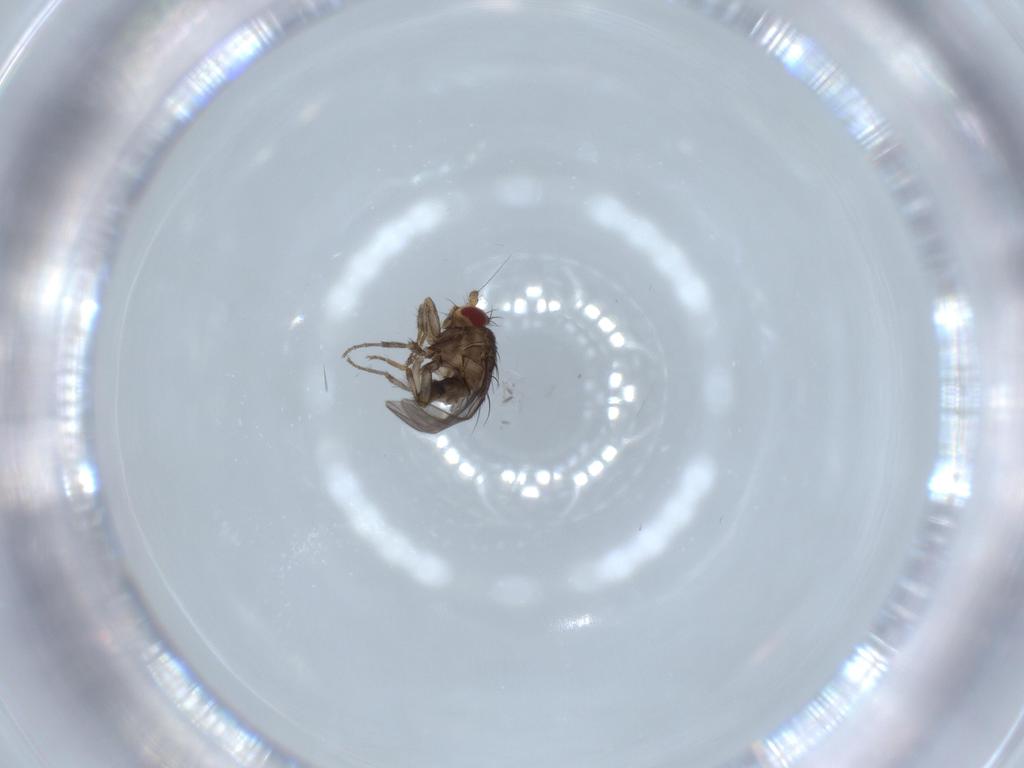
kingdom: Animalia
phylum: Arthropoda
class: Insecta
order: Diptera
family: Sphaeroceridae
